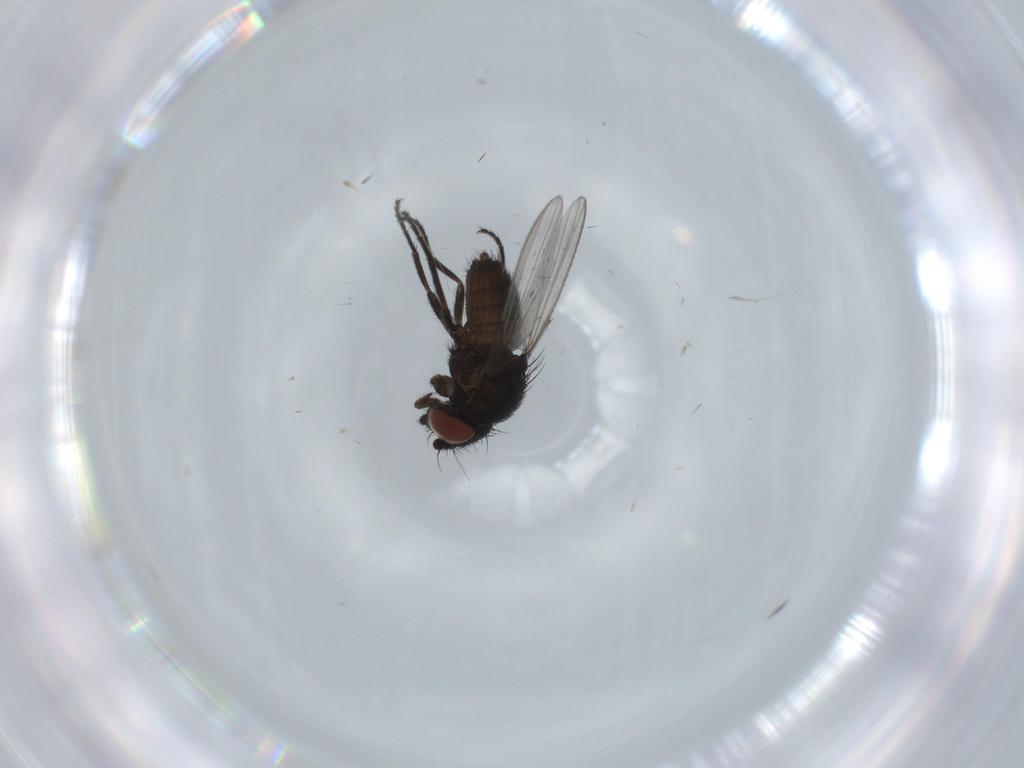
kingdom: Animalia
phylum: Arthropoda
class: Insecta
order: Diptera
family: Milichiidae
